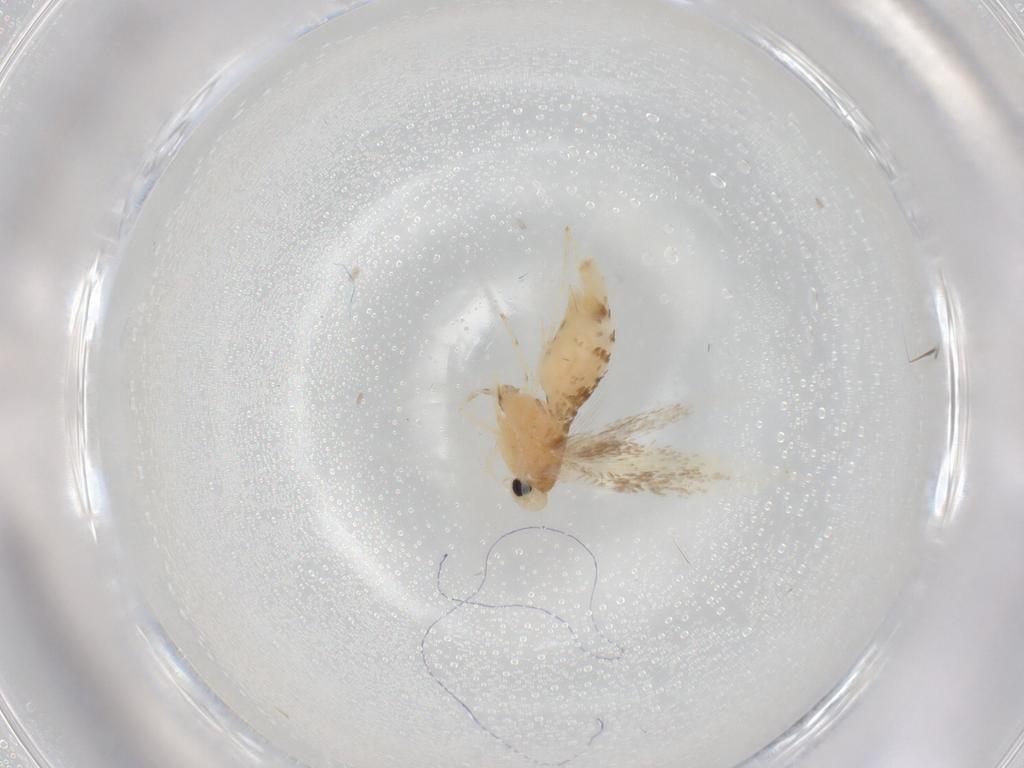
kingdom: Animalia
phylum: Arthropoda
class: Insecta
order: Lepidoptera
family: Gracillariidae
